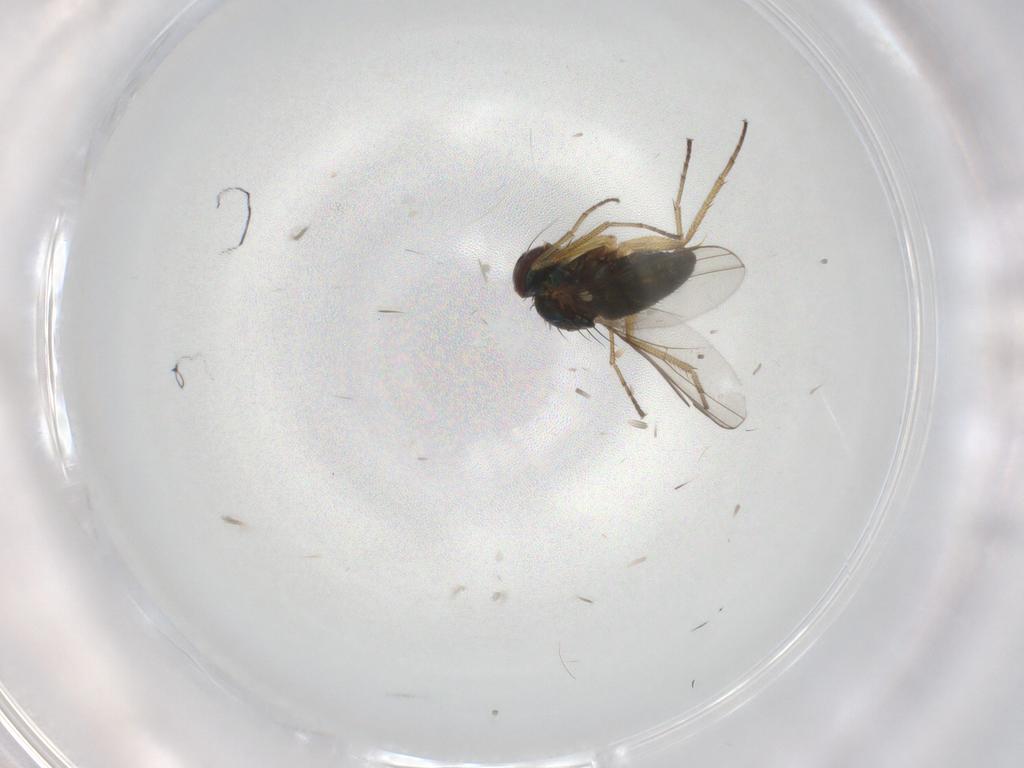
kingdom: Animalia
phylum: Arthropoda
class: Insecta
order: Diptera
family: Dolichopodidae
